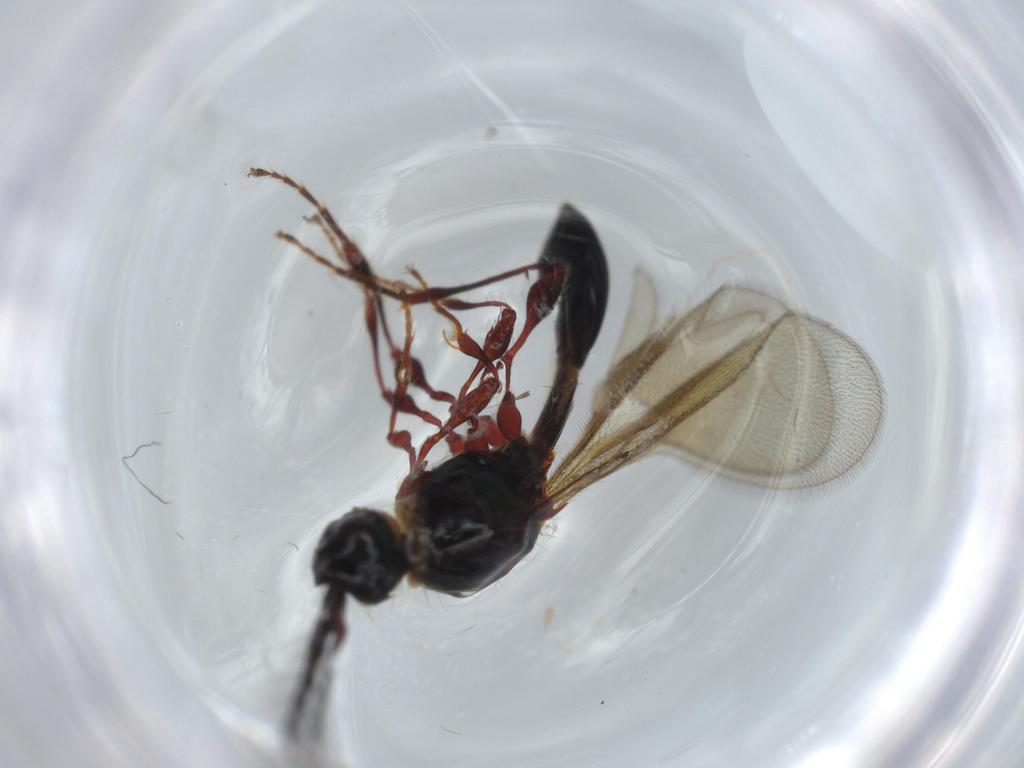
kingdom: Animalia
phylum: Arthropoda
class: Insecta
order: Hymenoptera
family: Diapriidae
